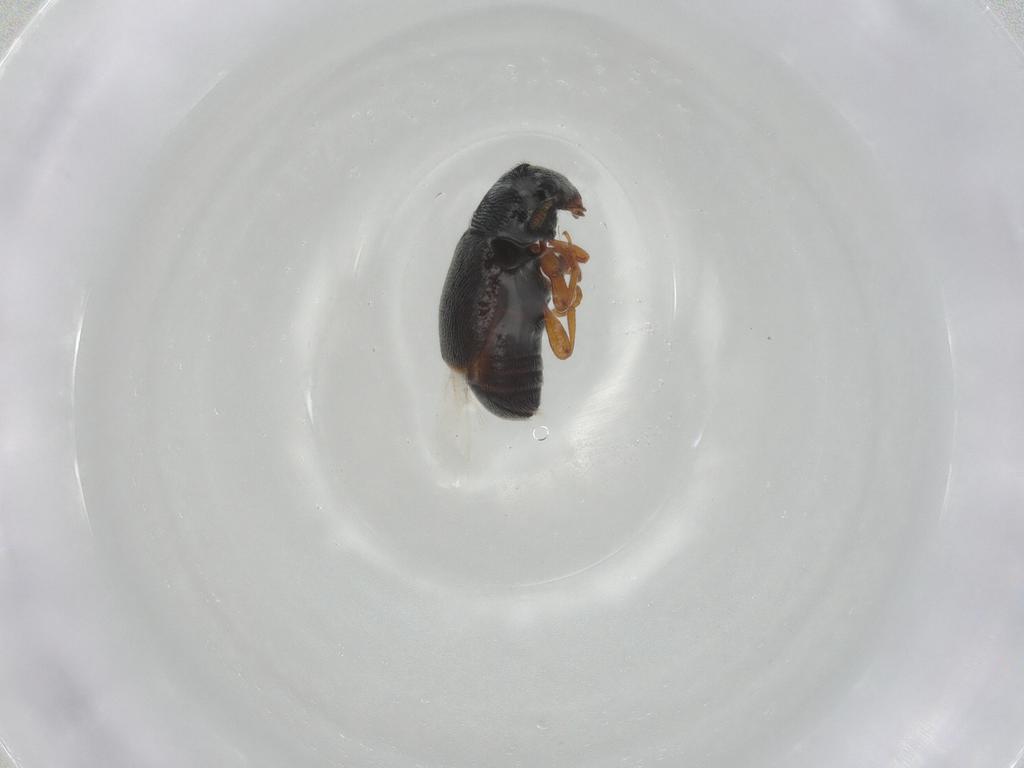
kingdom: Animalia
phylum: Arthropoda
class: Insecta
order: Coleoptera
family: Anthribidae
